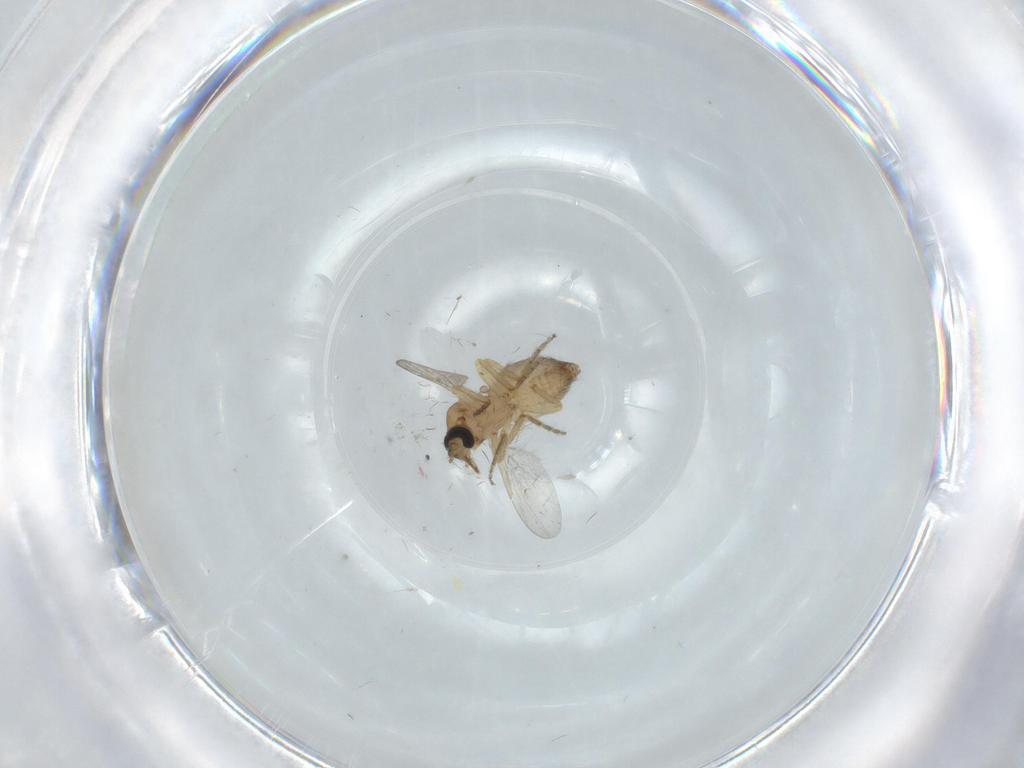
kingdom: Animalia
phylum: Arthropoda
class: Insecta
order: Diptera
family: Ceratopogonidae
